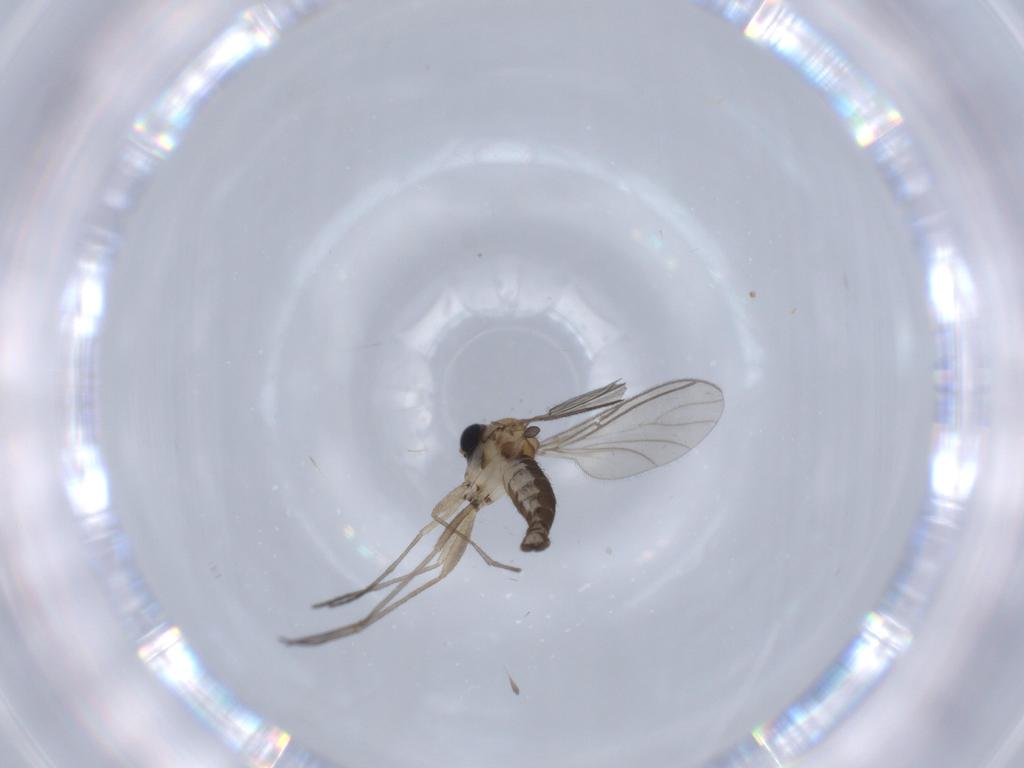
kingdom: Animalia
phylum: Arthropoda
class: Insecta
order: Diptera
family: Sciaridae
